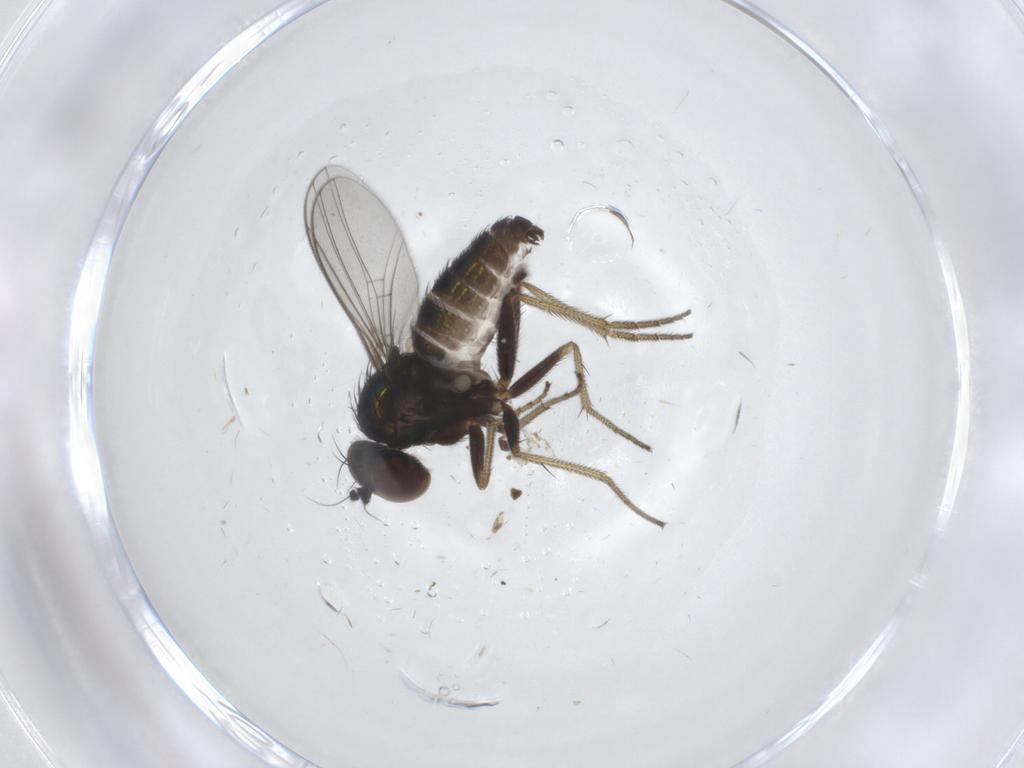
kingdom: Animalia
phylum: Arthropoda
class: Insecta
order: Diptera
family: Dolichopodidae
